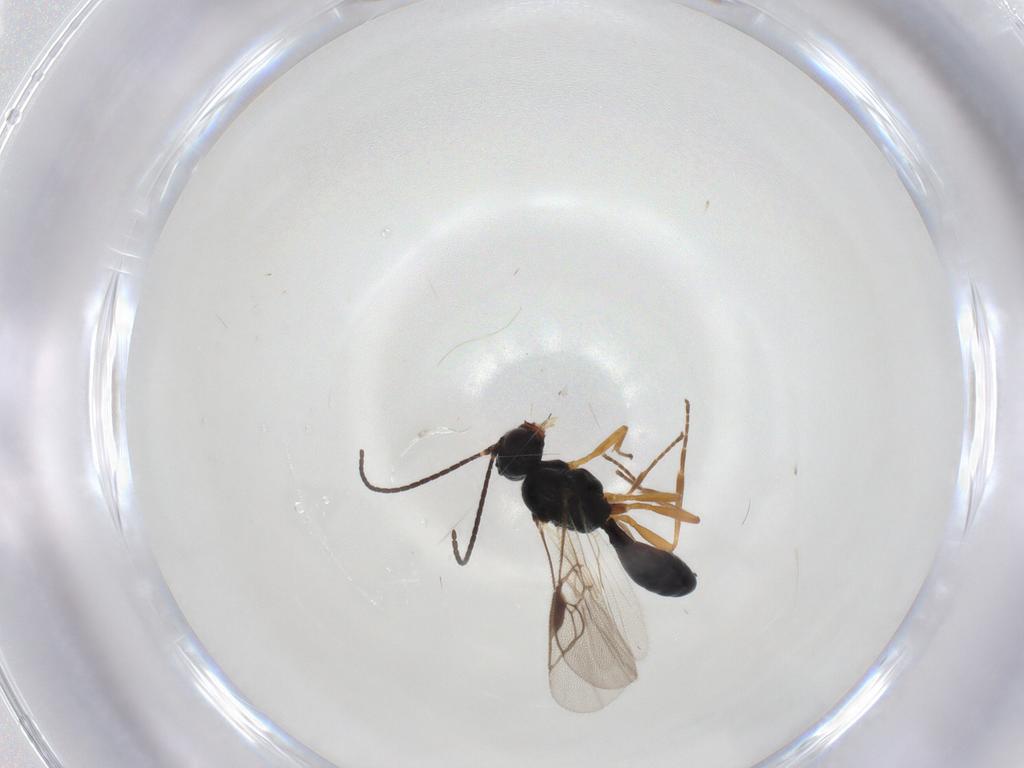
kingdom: Animalia
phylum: Arthropoda
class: Insecta
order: Hymenoptera
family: Braconidae
